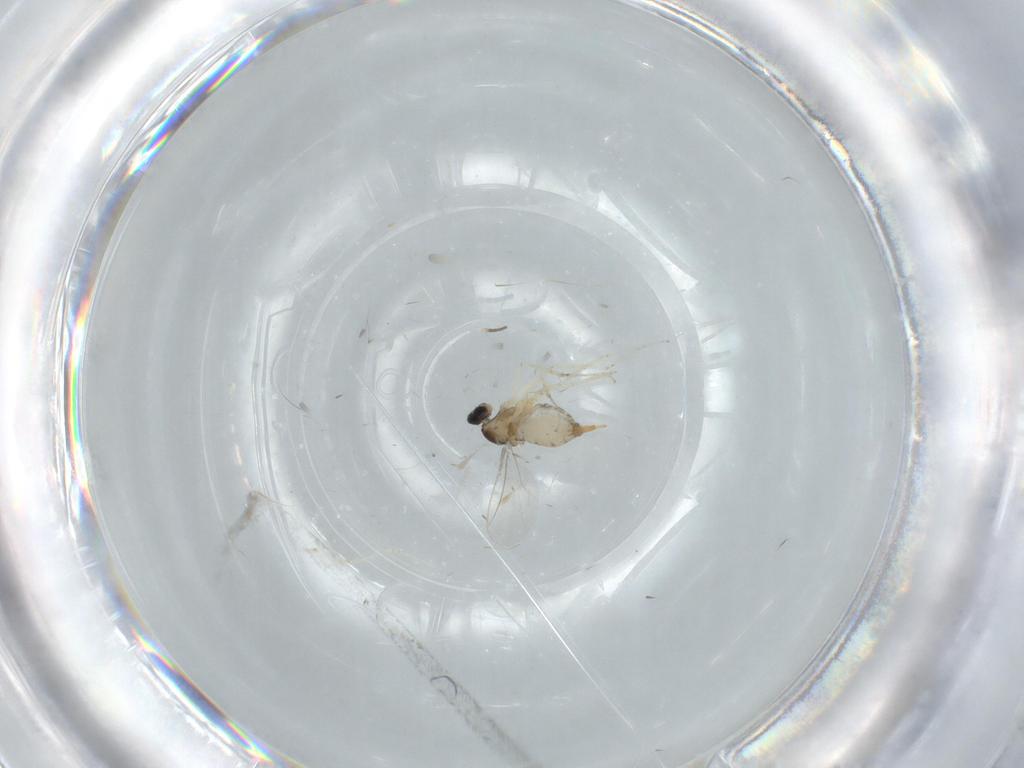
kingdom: Animalia
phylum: Arthropoda
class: Insecta
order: Diptera
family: Cecidomyiidae
